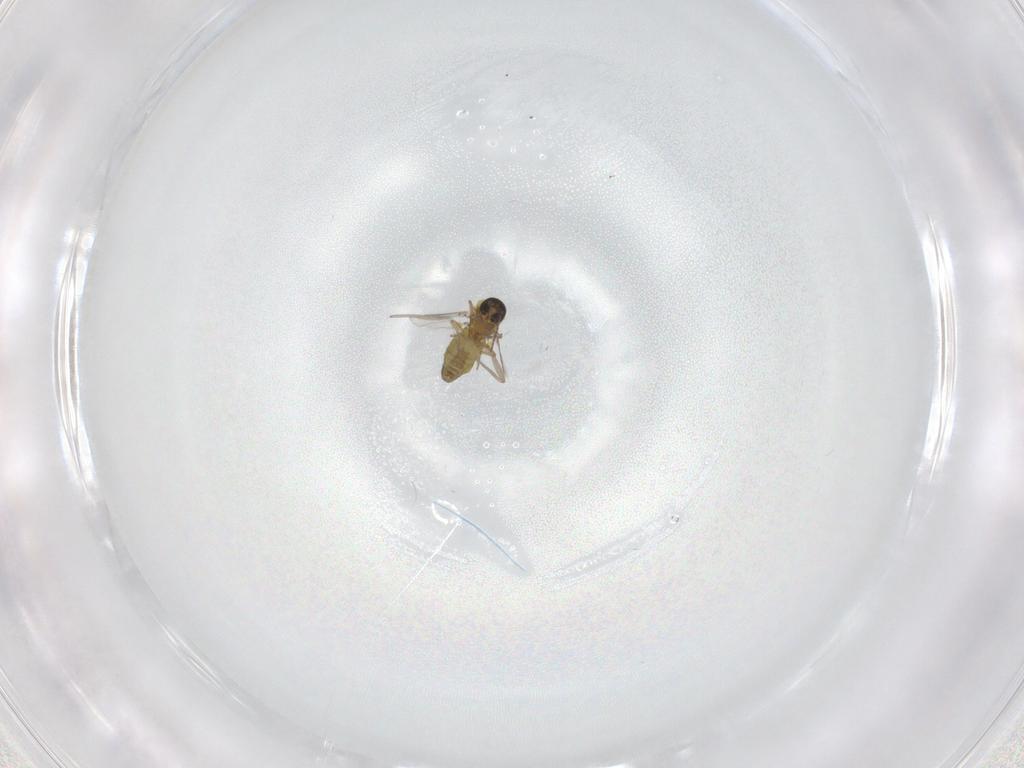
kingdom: Animalia
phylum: Arthropoda
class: Insecta
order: Diptera
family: Ceratopogonidae
